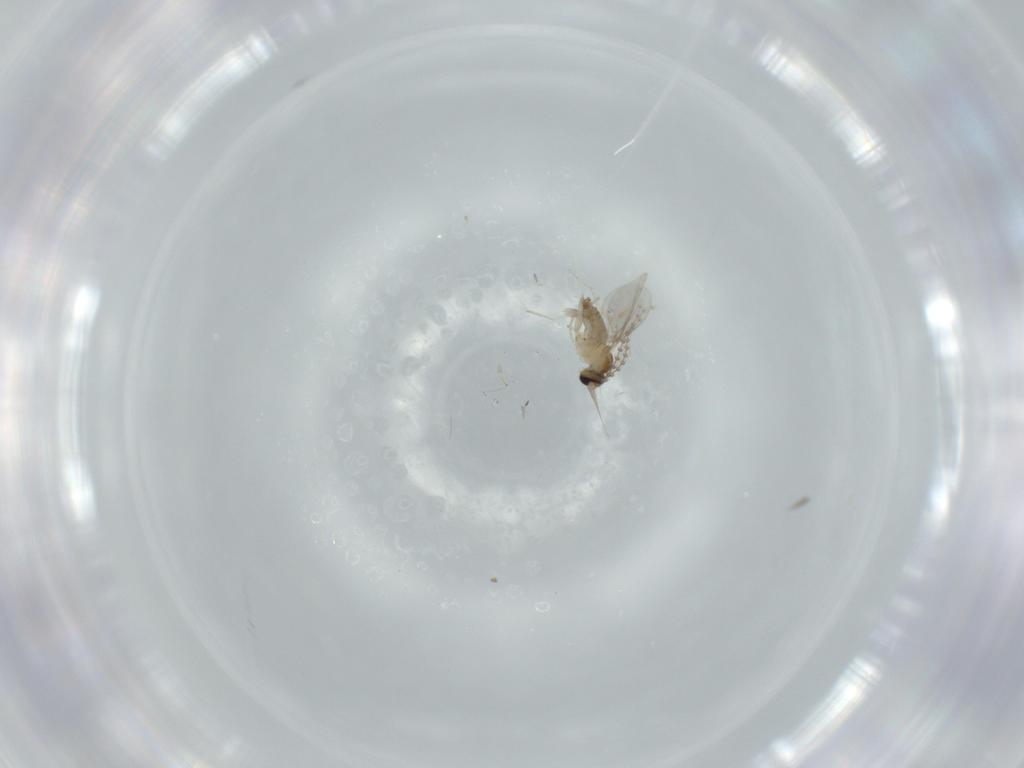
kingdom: Animalia
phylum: Arthropoda
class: Insecta
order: Diptera
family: Cecidomyiidae
